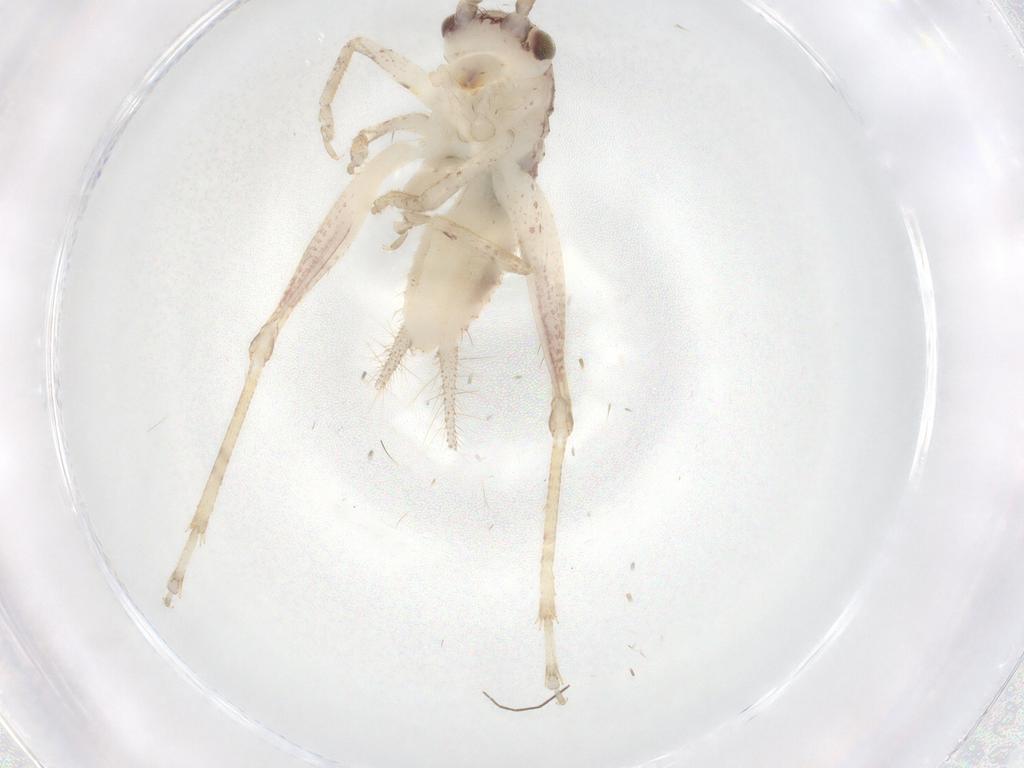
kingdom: Animalia
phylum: Arthropoda
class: Insecta
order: Orthoptera
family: Gryllidae
